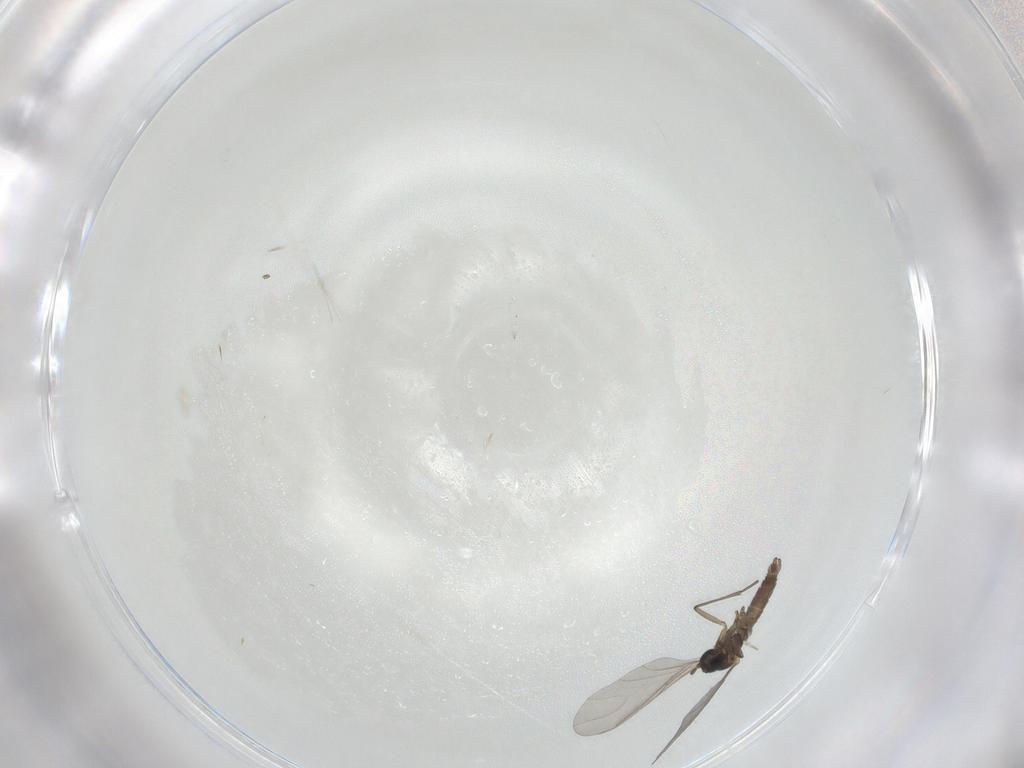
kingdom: Animalia
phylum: Arthropoda
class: Insecta
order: Diptera
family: Sciaridae
